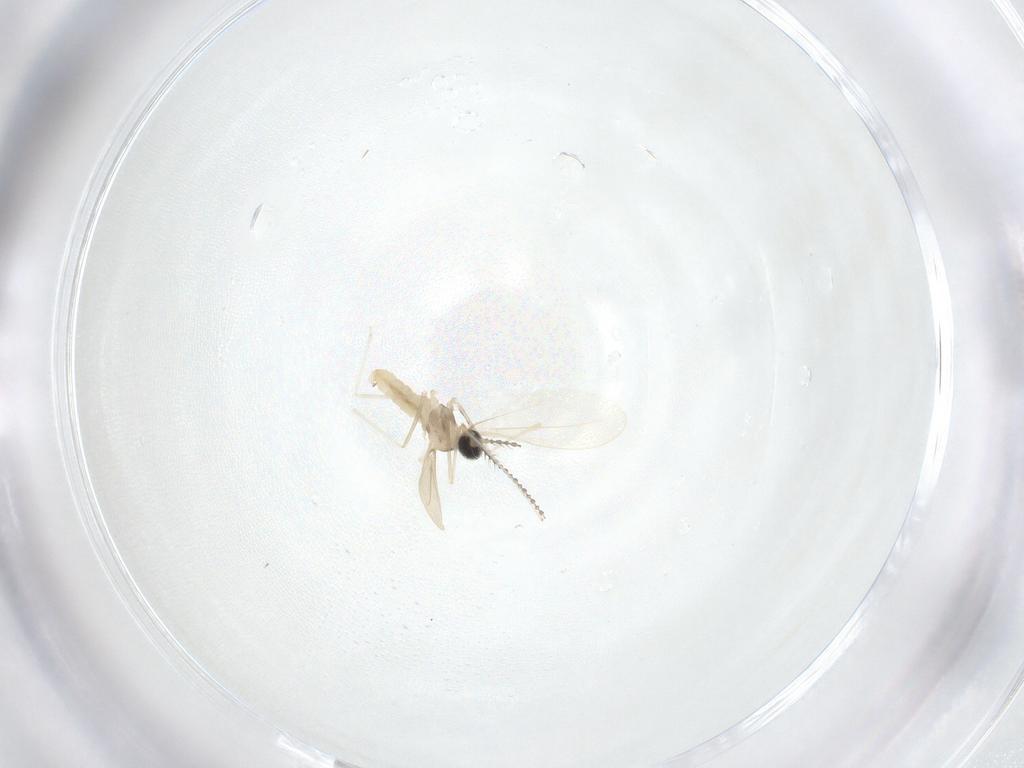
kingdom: Animalia
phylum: Arthropoda
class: Insecta
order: Diptera
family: Cecidomyiidae
